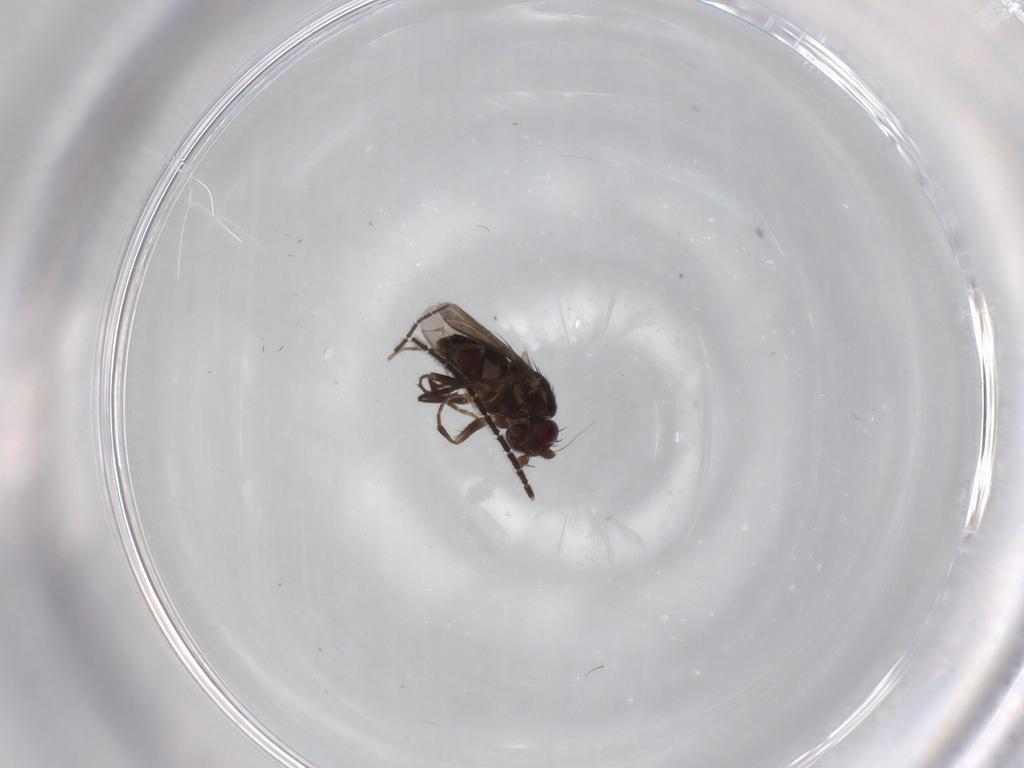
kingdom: Animalia
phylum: Arthropoda
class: Insecta
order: Diptera
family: Sphaeroceridae
